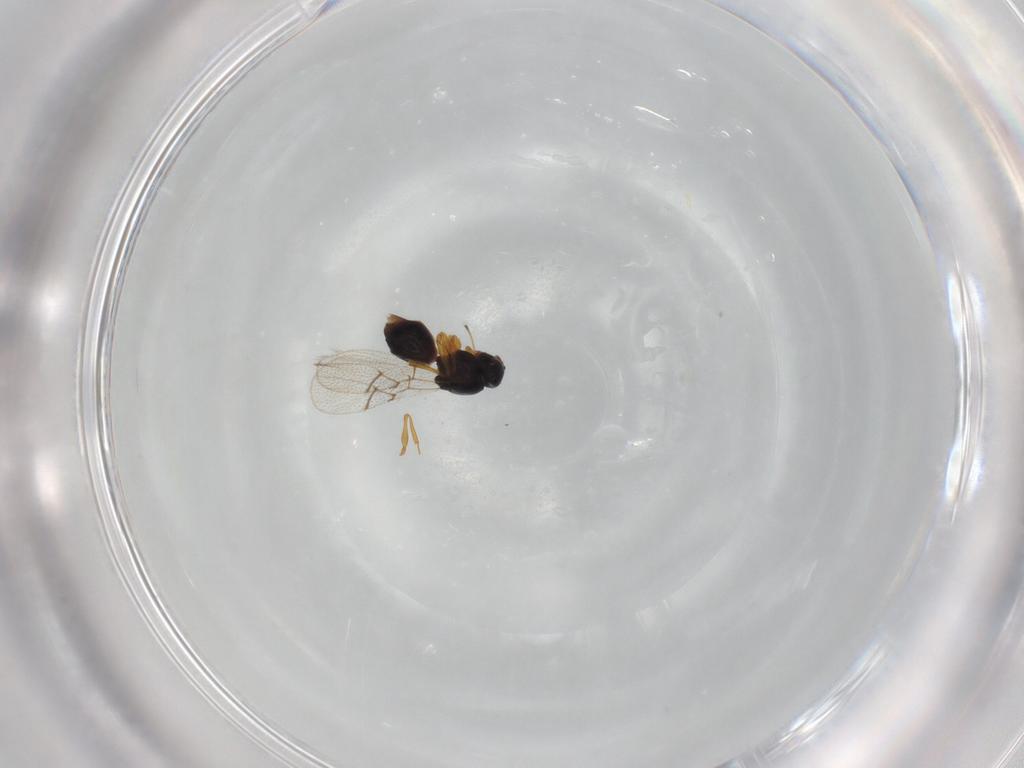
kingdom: Animalia
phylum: Arthropoda
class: Insecta
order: Hymenoptera
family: Figitidae
